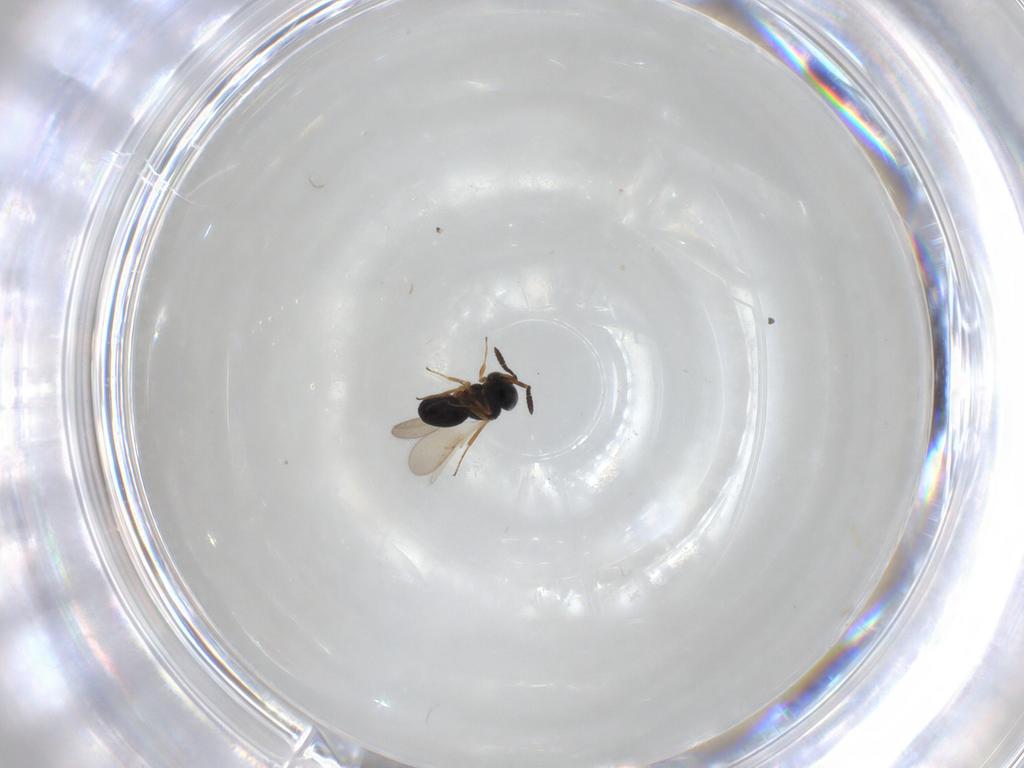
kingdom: Animalia
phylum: Arthropoda
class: Insecta
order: Hymenoptera
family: Scelionidae
